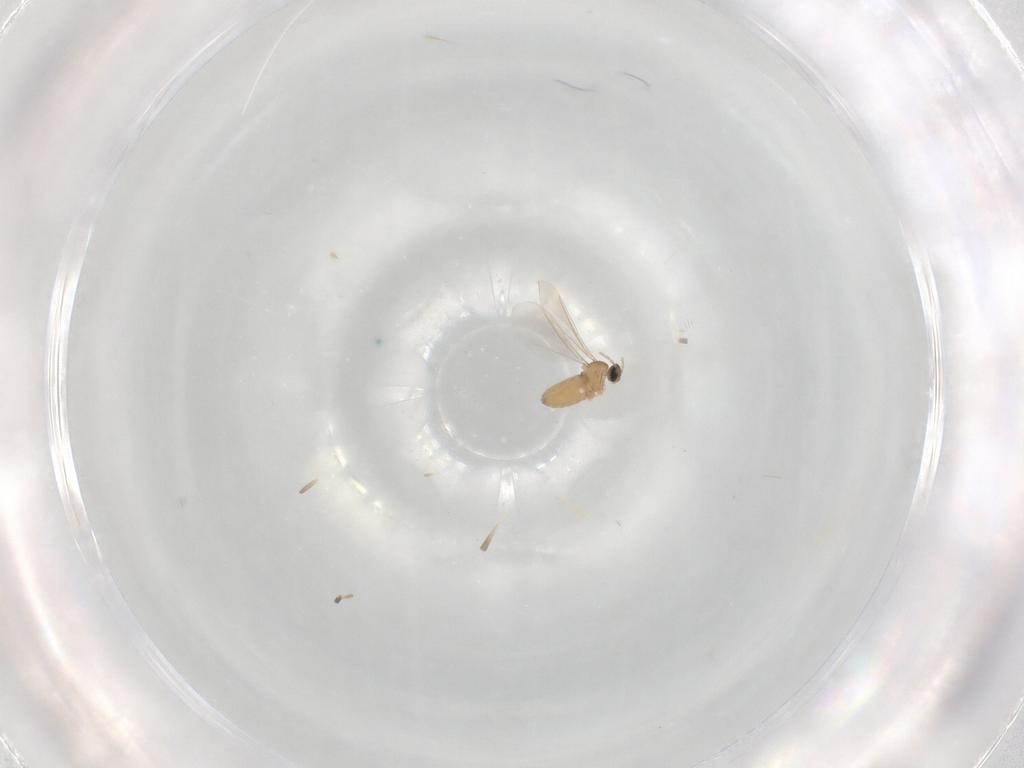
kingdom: Animalia
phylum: Arthropoda
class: Insecta
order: Diptera
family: Cecidomyiidae
